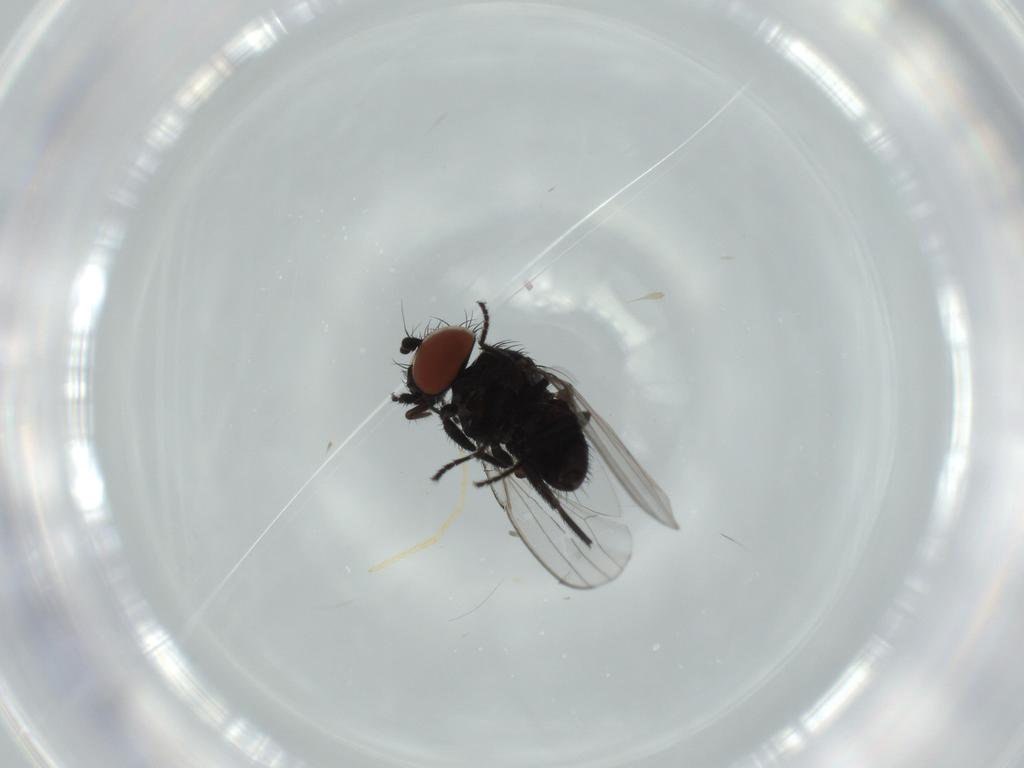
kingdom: Animalia
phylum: Arthropoda
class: Insecta
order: Diptera
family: Chironomidae
